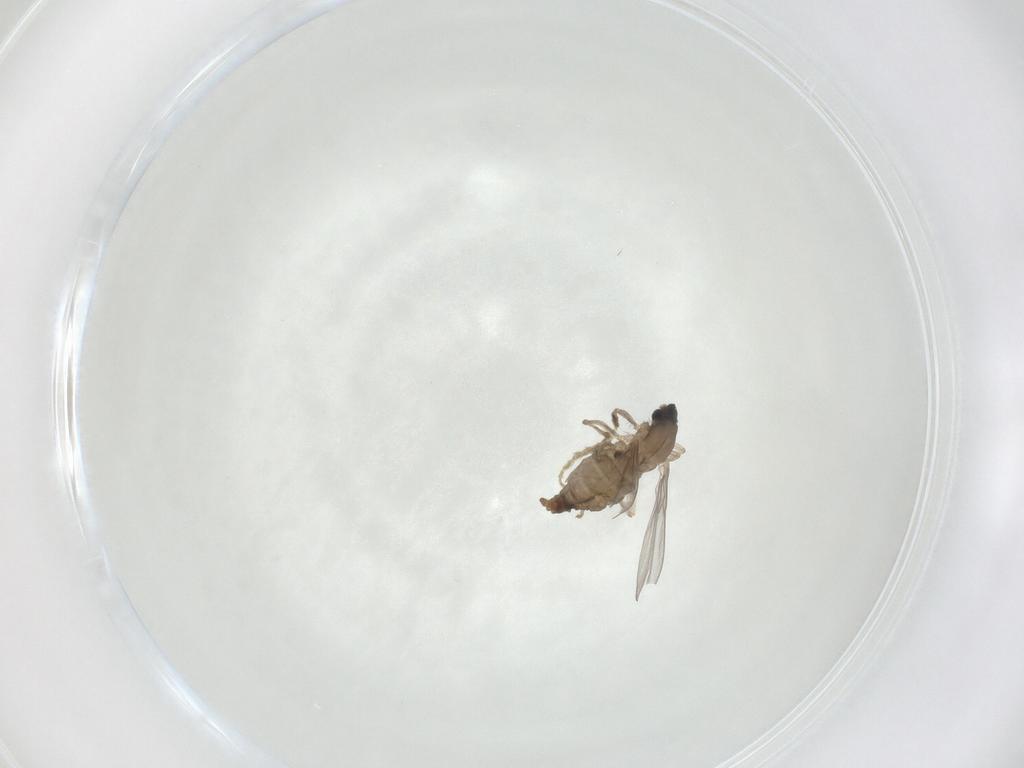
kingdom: Animalia
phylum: Arthropoda
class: Insecta
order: Diptera
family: Cecidomyiidae
